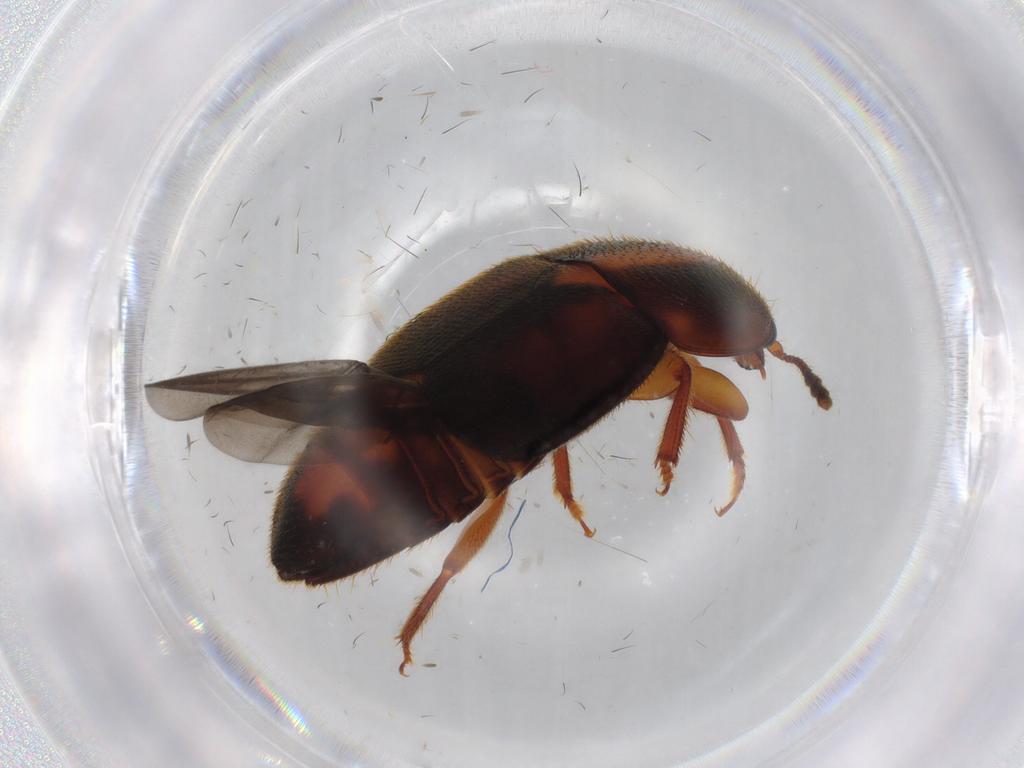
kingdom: Animalia
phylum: Arthropoda
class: Insecta
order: Coleoptera
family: Nitidulidae
